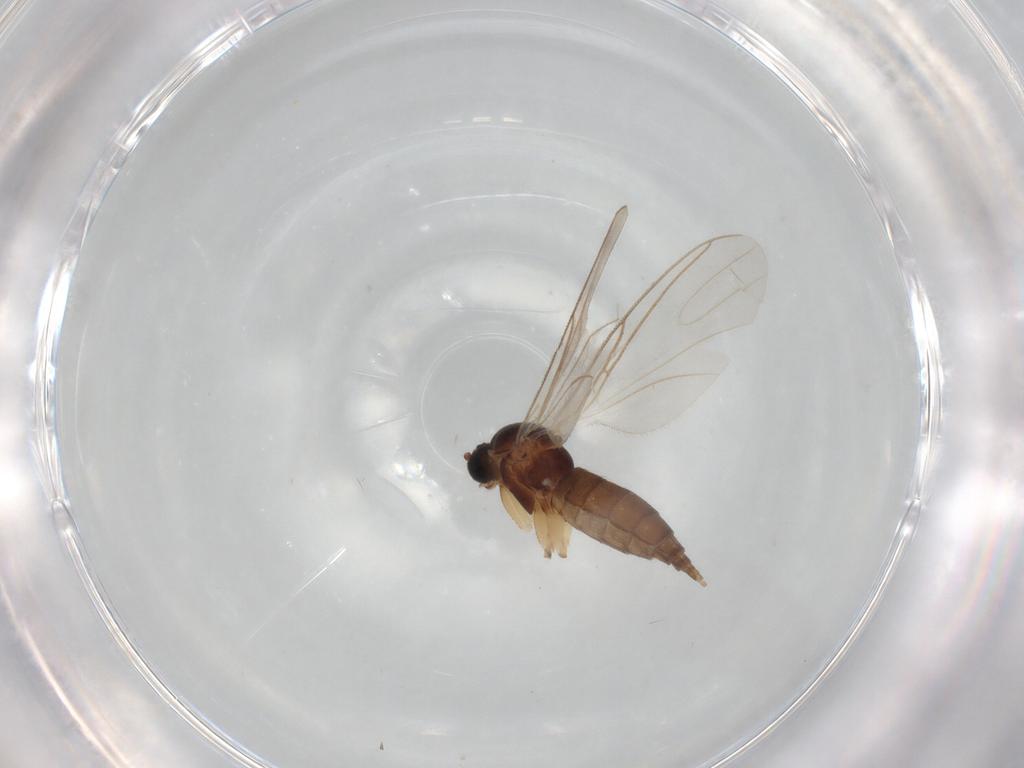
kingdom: Animalia
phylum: Arthropoda
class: Insecta
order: Diptera
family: Sciaridae
